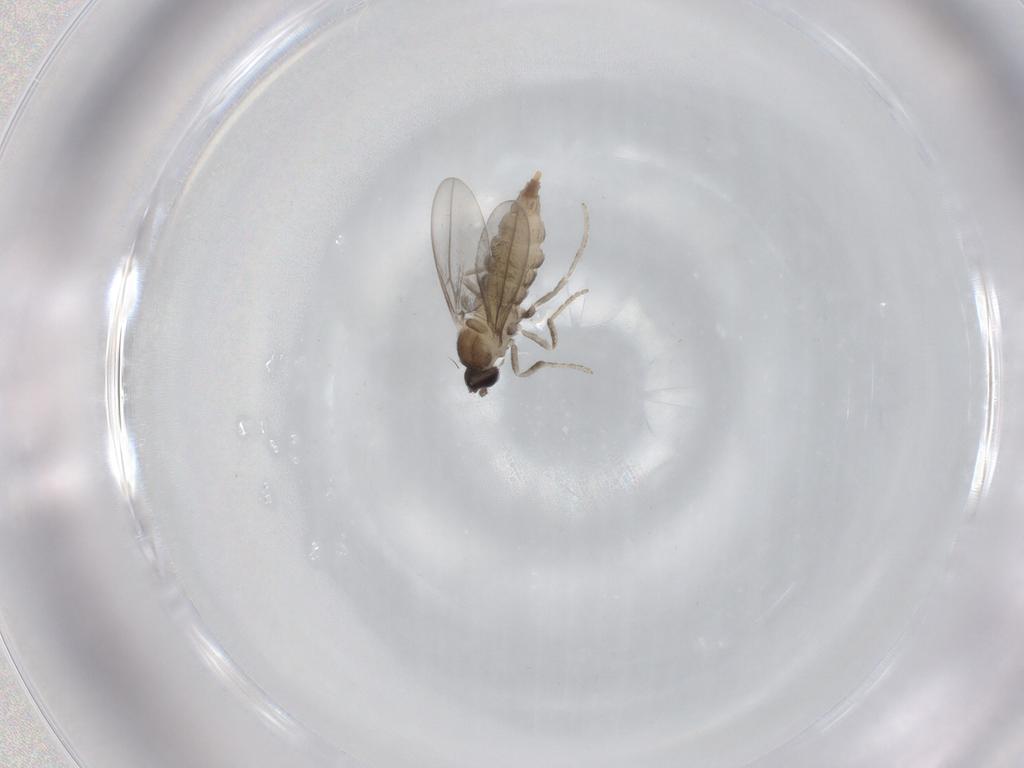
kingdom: Animalia
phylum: Arthropoda
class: Insecta
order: Diptera
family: Cecidomyiidae
